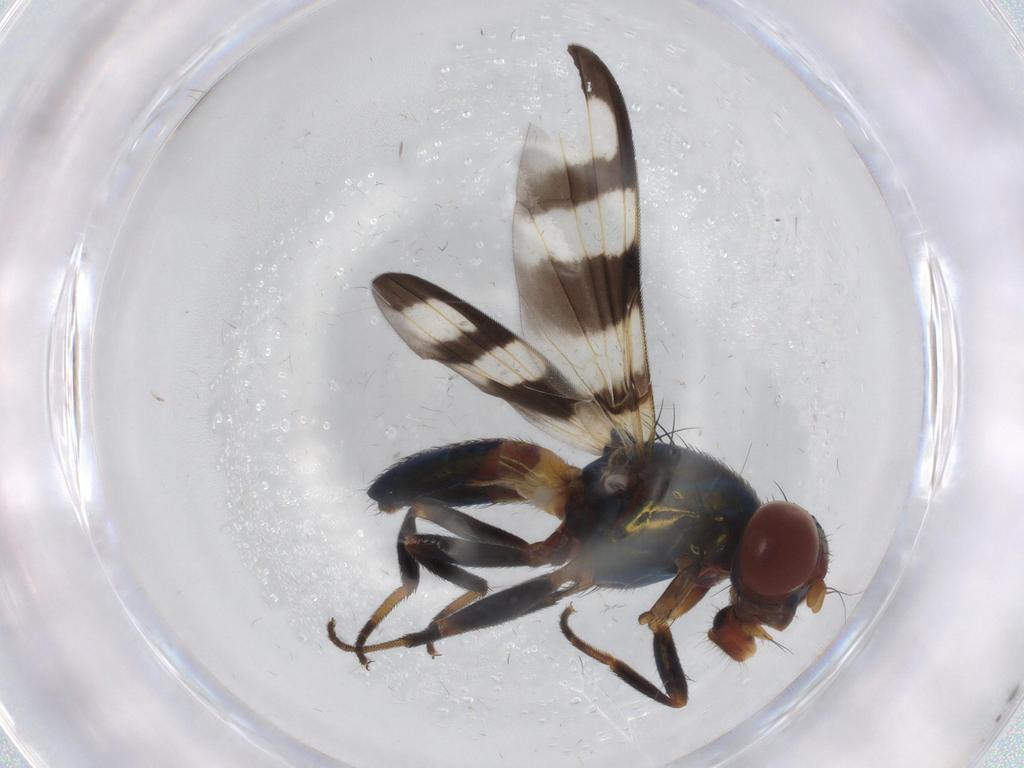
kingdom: Animalia
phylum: Arthropoda
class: Insecta
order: Diptera
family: Ulidiidae
